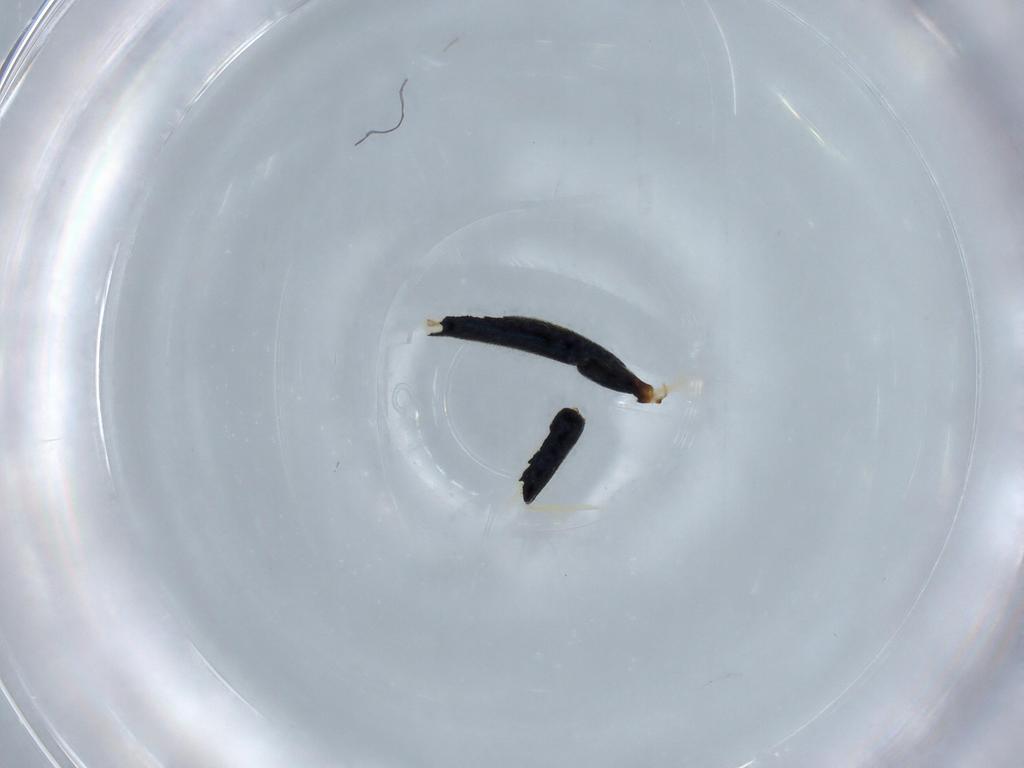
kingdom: Animalia
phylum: Arthropoda
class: Insecta
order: Coleoptera
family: Melyridae
